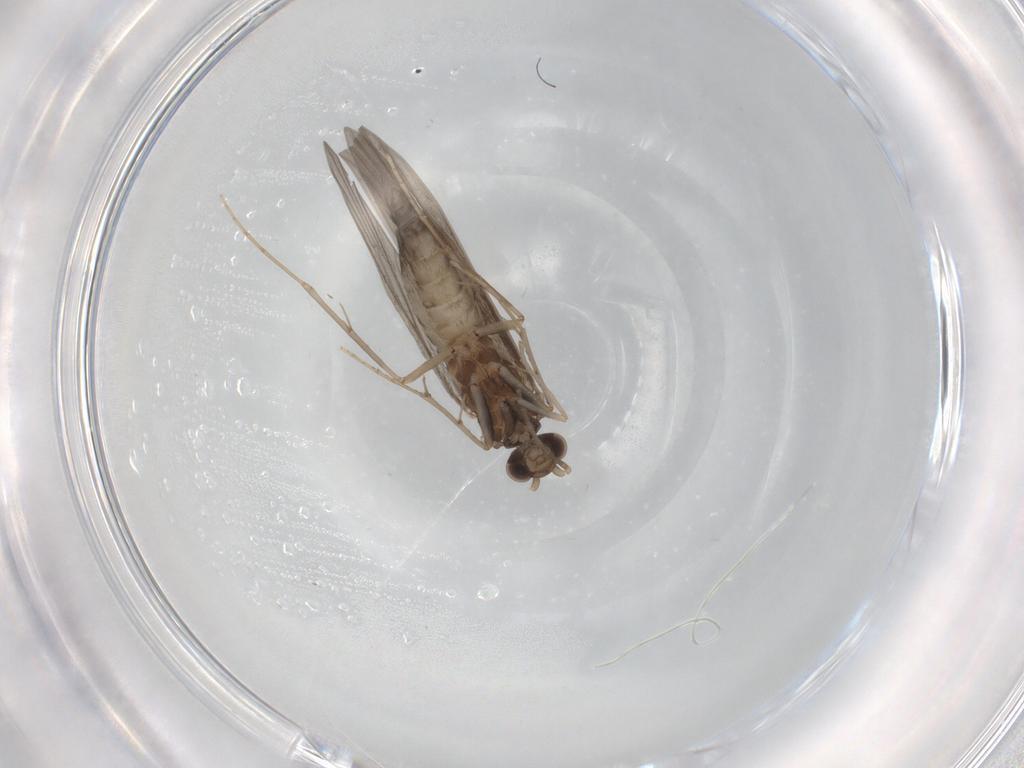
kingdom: Animalia
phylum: Arthropoda
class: Insecta
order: Trichoptera
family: Xiphocentronidae
